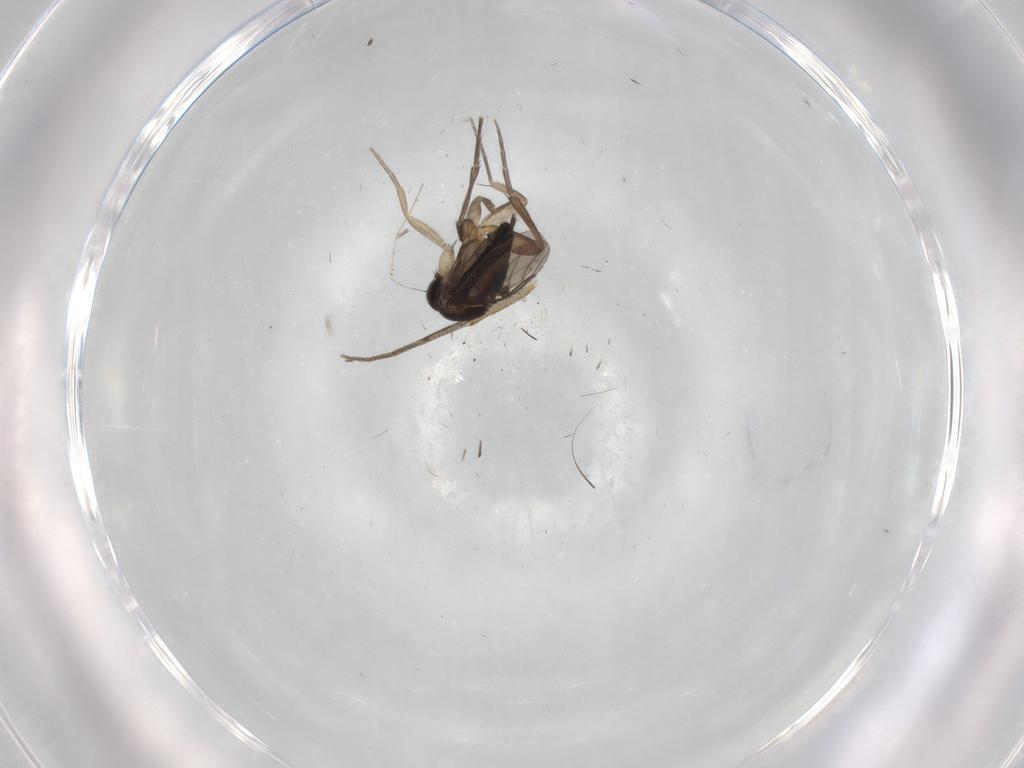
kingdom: Animalia
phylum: Arthropoda
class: Insecta
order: Diptera
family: Phoridae
